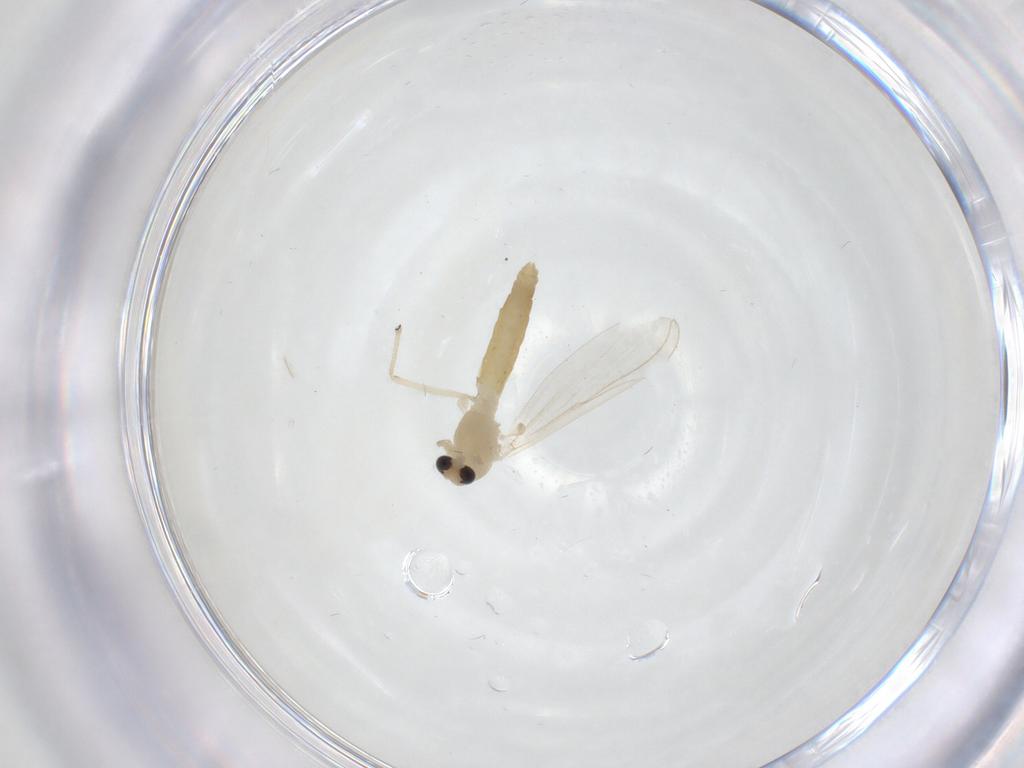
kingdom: Animalia
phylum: Arthropoda
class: Insecta
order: Diptera
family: Chironomidae
